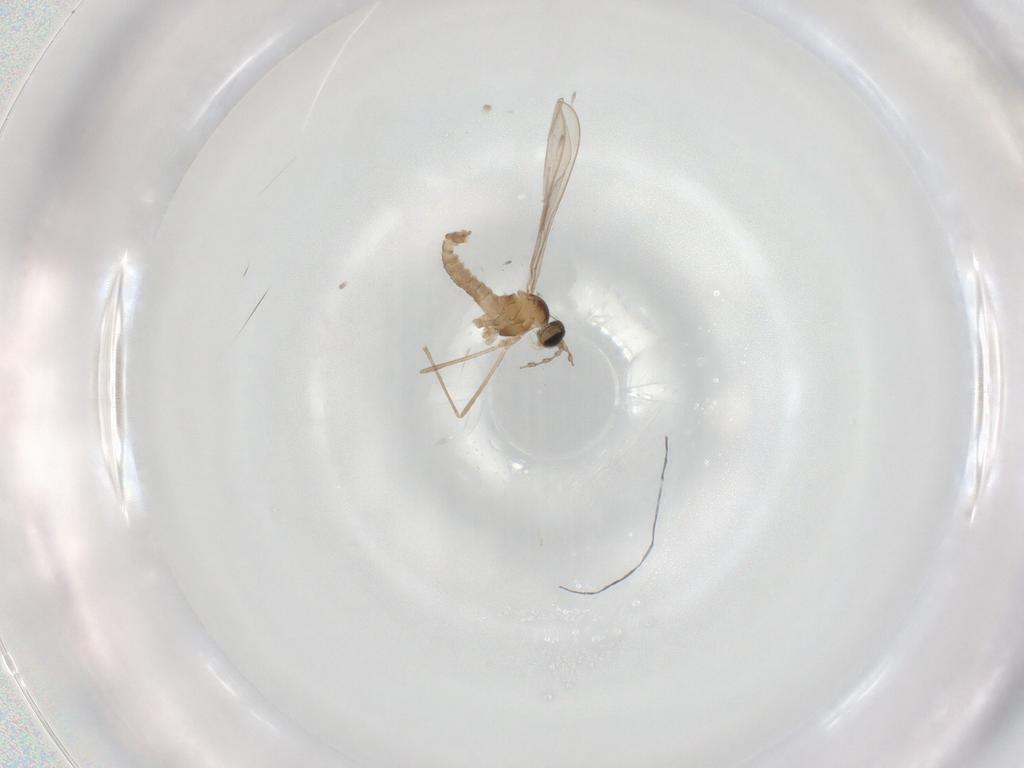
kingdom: Animalia
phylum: Arthropoda
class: Insecta
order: Diptera
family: Cecidomyiidae
